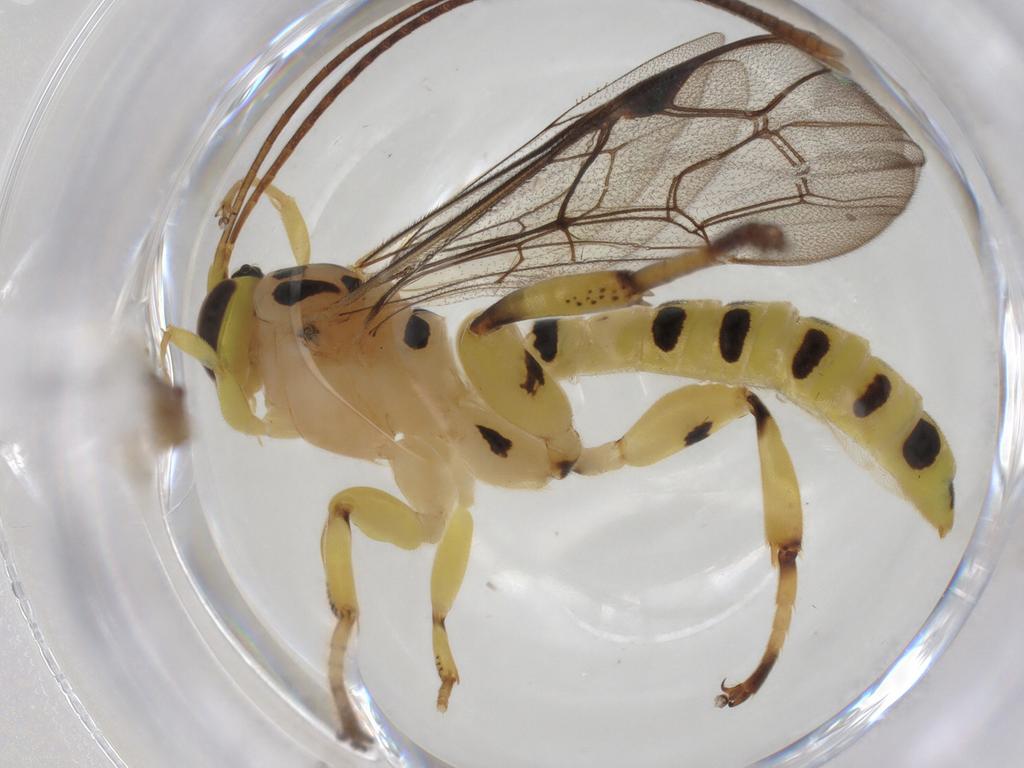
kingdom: Animalia
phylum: Arthropoda
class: Insecta
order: Hymenoptera
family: Ichneumonidae
